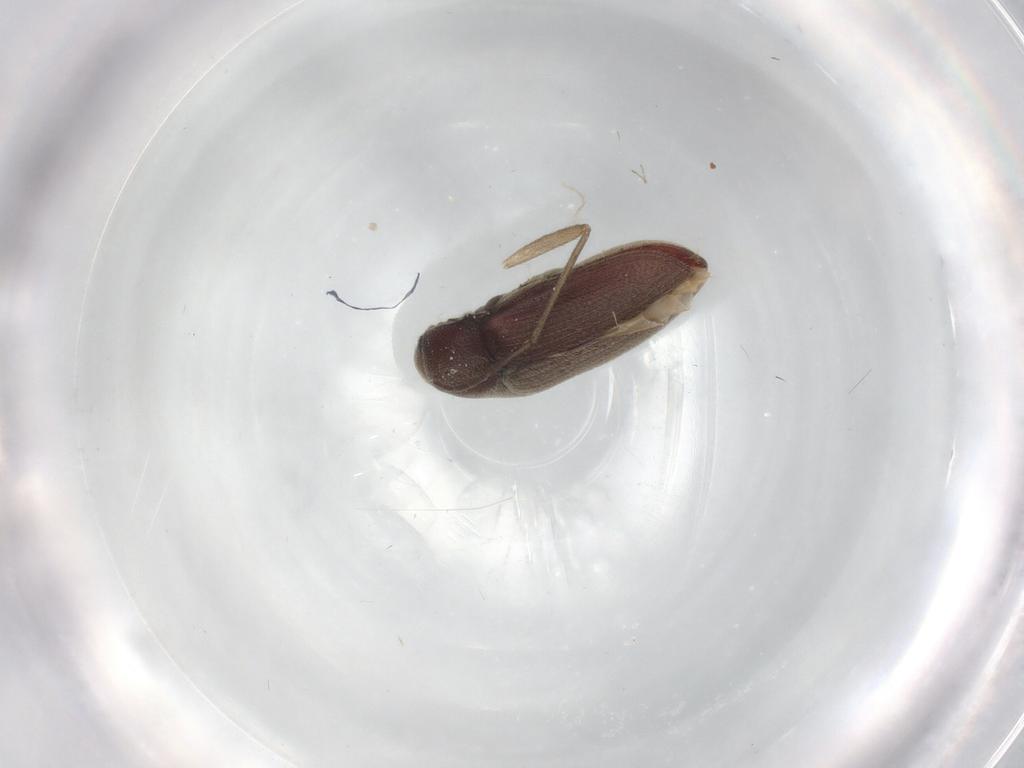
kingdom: Animalia
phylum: Arthropoda
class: Insecta
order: Coleoptera
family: Throscidae
